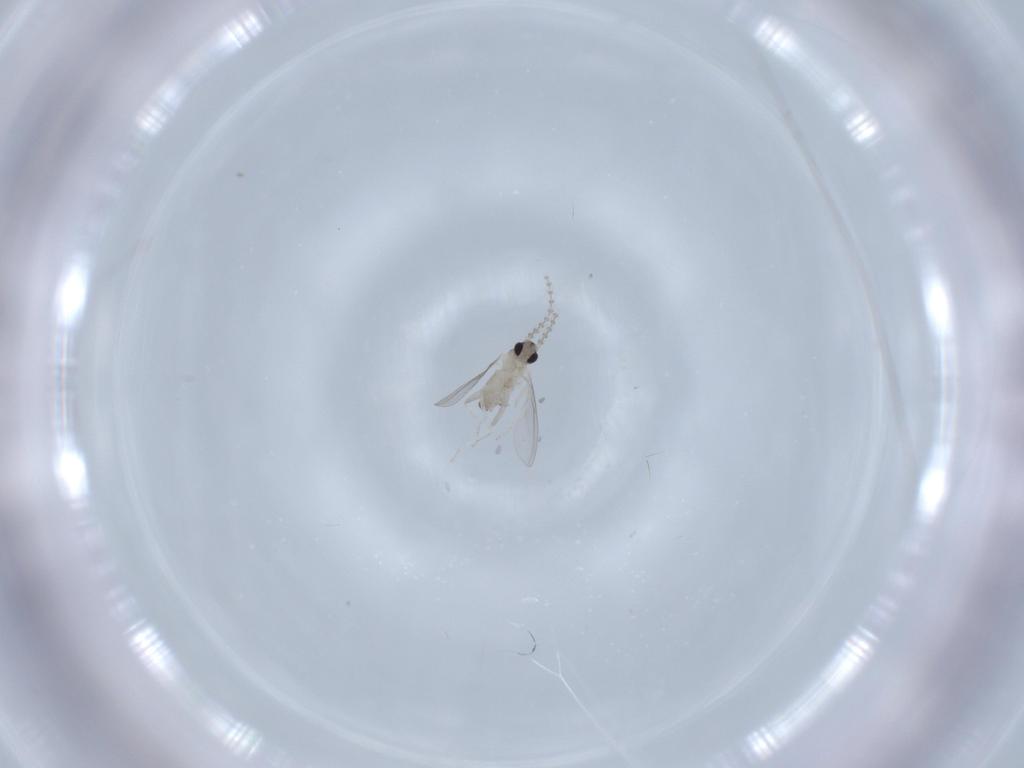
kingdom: Animalia
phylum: Arthropoda
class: Insecta
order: Diptera
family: Cecidomyiidae
